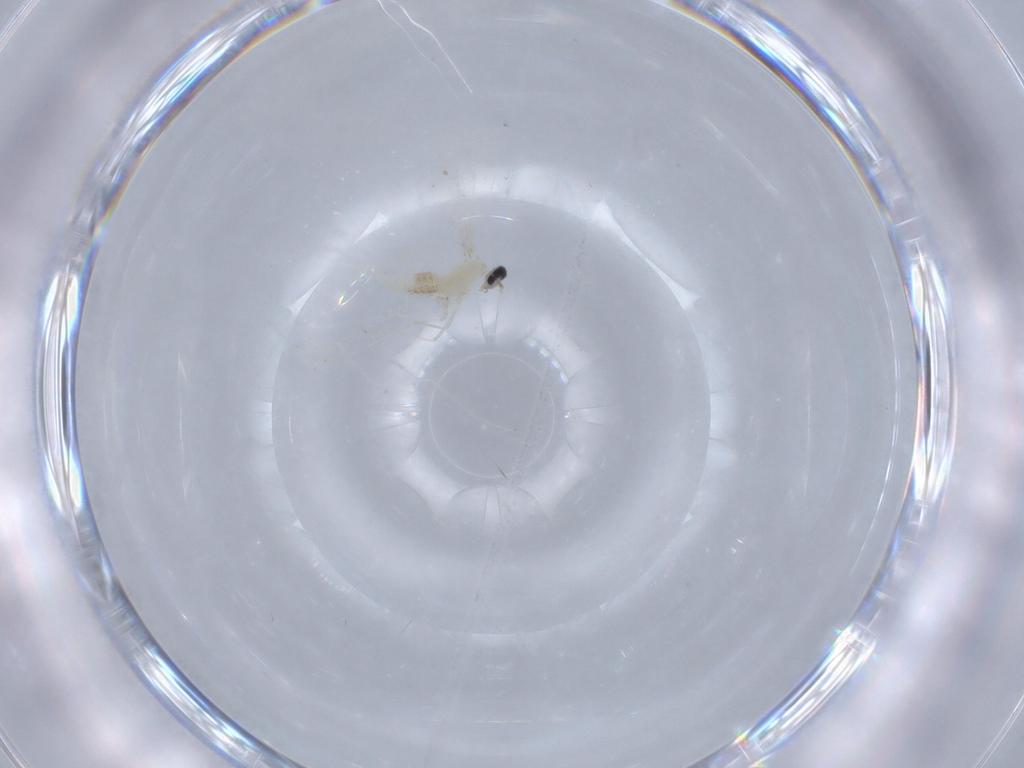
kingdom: Animalia
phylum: Arthropoda
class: Insecta
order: Diptera
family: Cecidomyiidae
